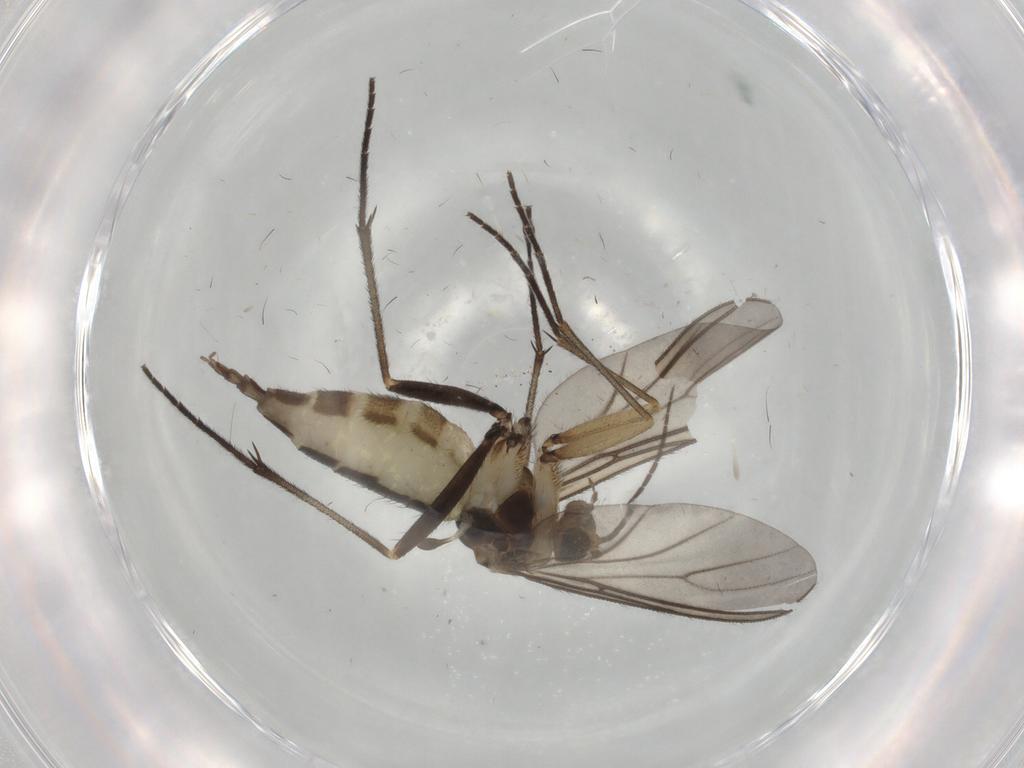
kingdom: Animalia
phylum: Arthropoda
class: Insecta
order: Diptera
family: Sciaridae
